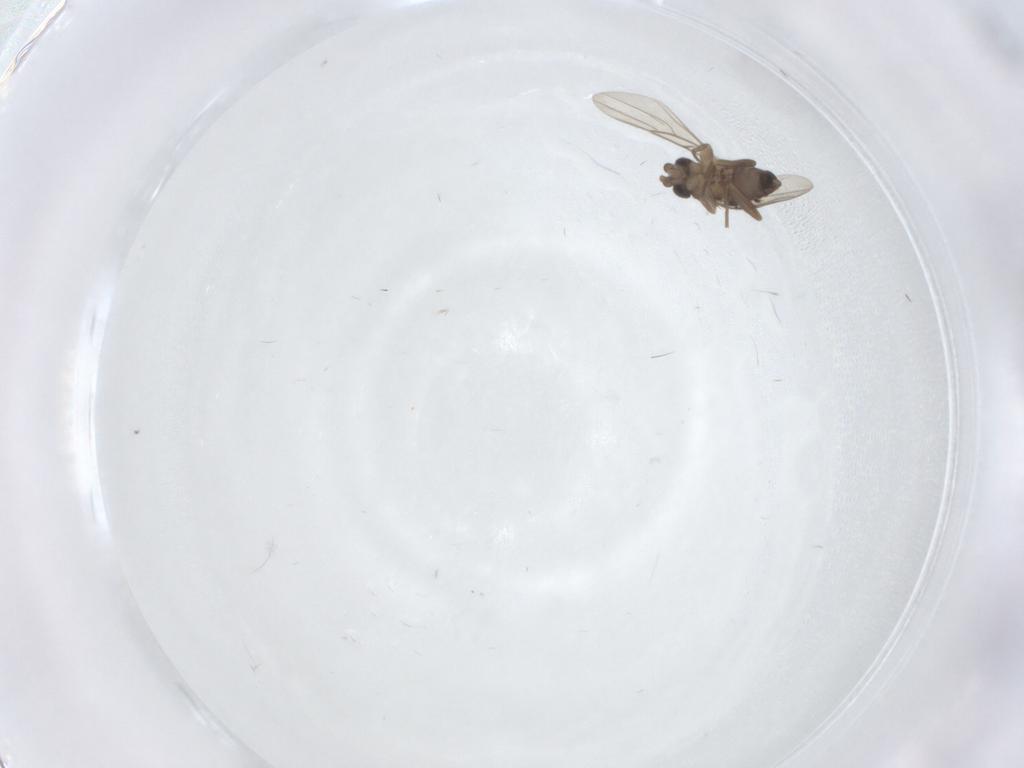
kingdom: Animalia
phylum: Arthropoda
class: Insecta
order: Diptera
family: Phoridae
